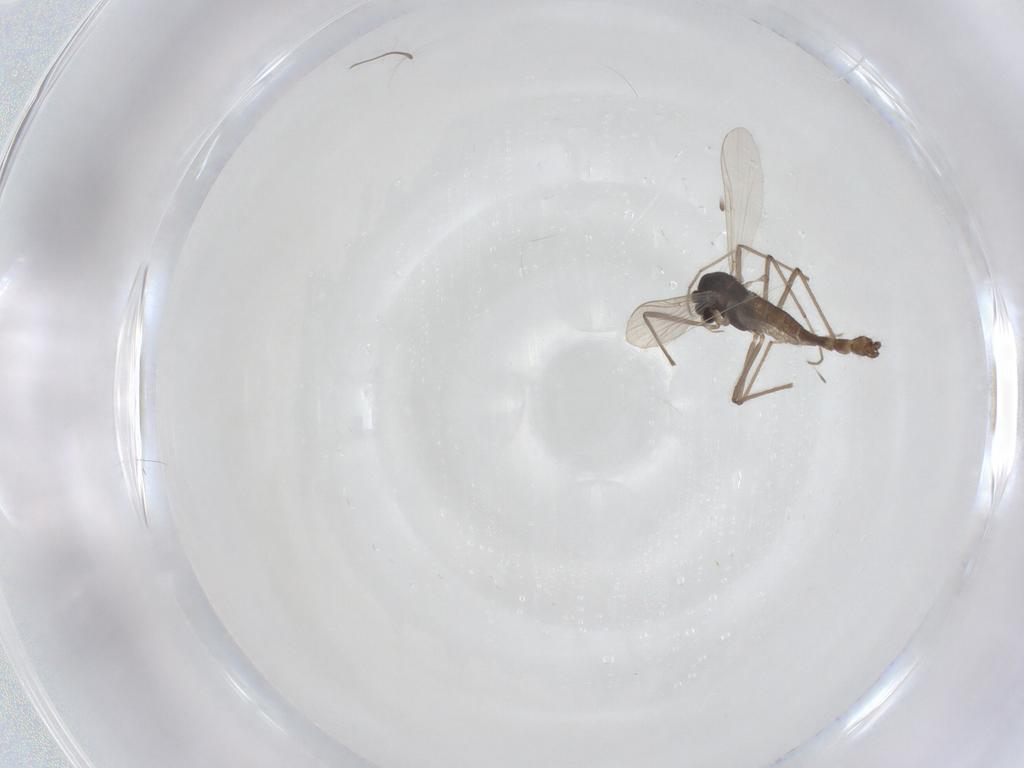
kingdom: Animalia
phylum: Arthropoda
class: Insecta
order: Diptera
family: Chironomidae
